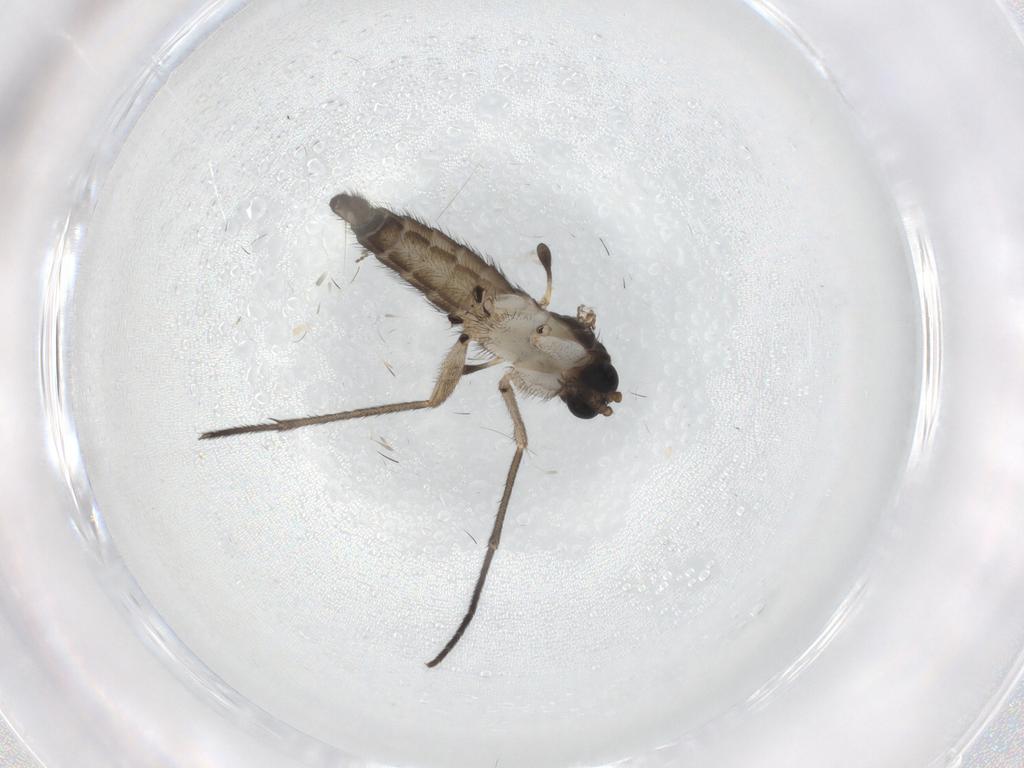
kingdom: Animalia
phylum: Arthropoda
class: Insecta
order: Diptera
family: Sciaridae
